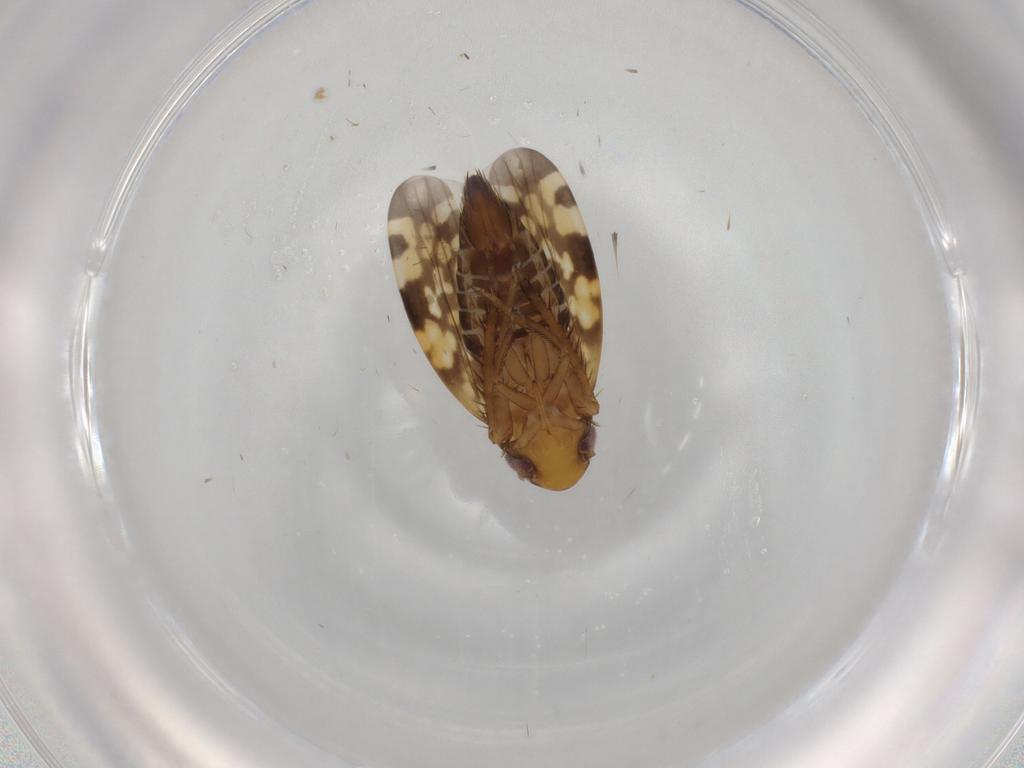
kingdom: Animalia
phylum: Arthropoda
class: Insecta
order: Hemiptera
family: Cicadellidae
